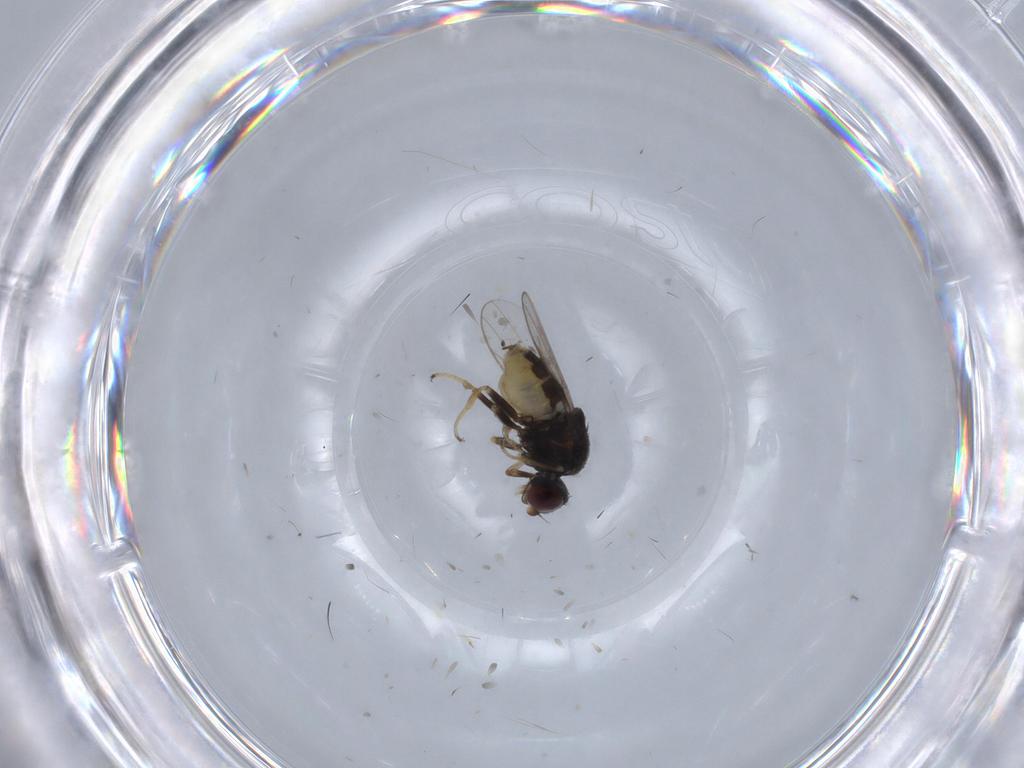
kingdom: Animalia
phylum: Arthropoda
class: Insecta
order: Diptera
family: Chloropidae
